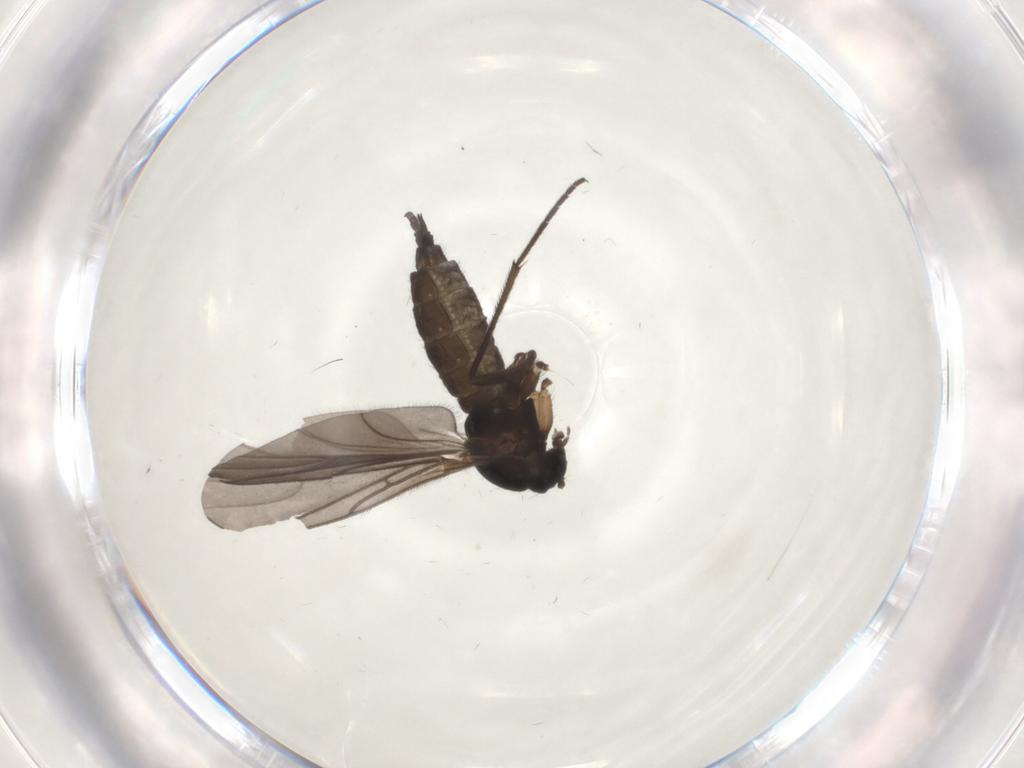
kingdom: Animalia
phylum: Arthropoda
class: Insecta
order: Diptera
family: Sciaridae
